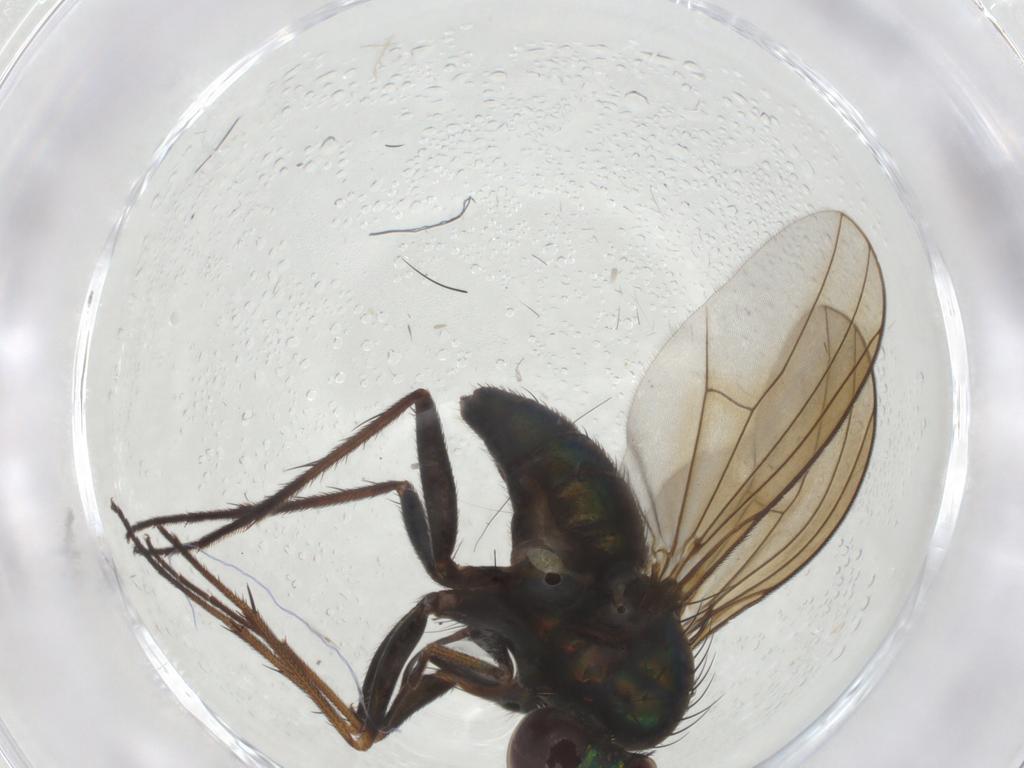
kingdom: Animalia
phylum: Arthropoda
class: Insecta
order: Diptera
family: Dolichopodidae
